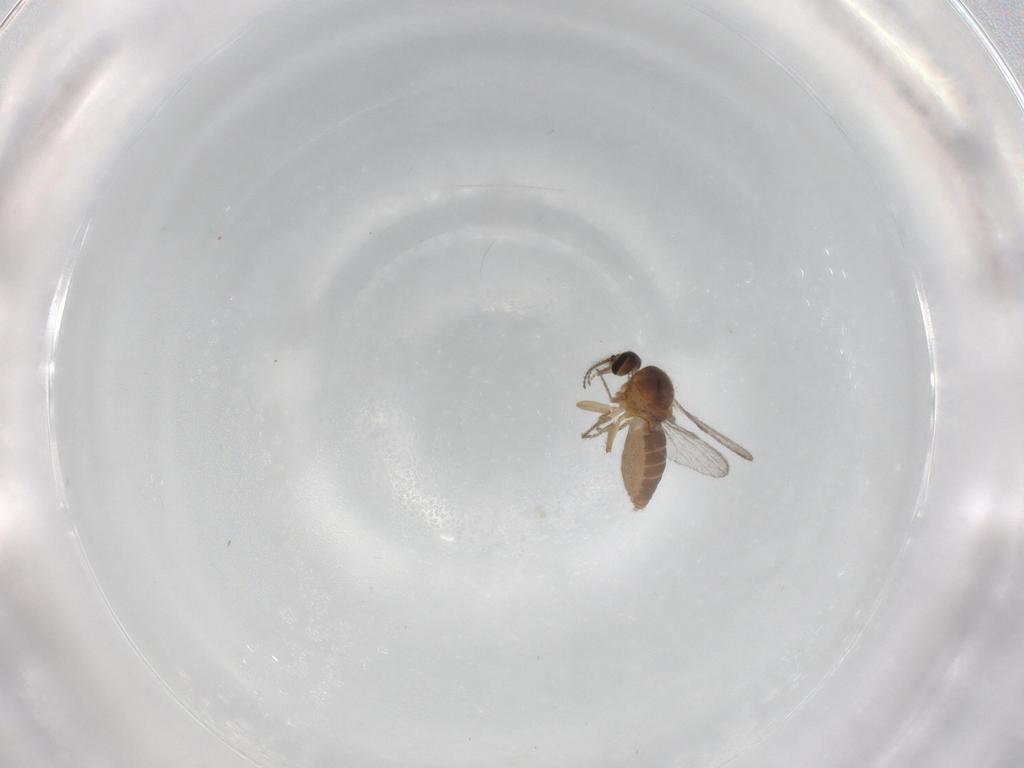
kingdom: Animalia
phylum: Arthropoda
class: Insecta
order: Diptera
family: Ceratopogonidae
